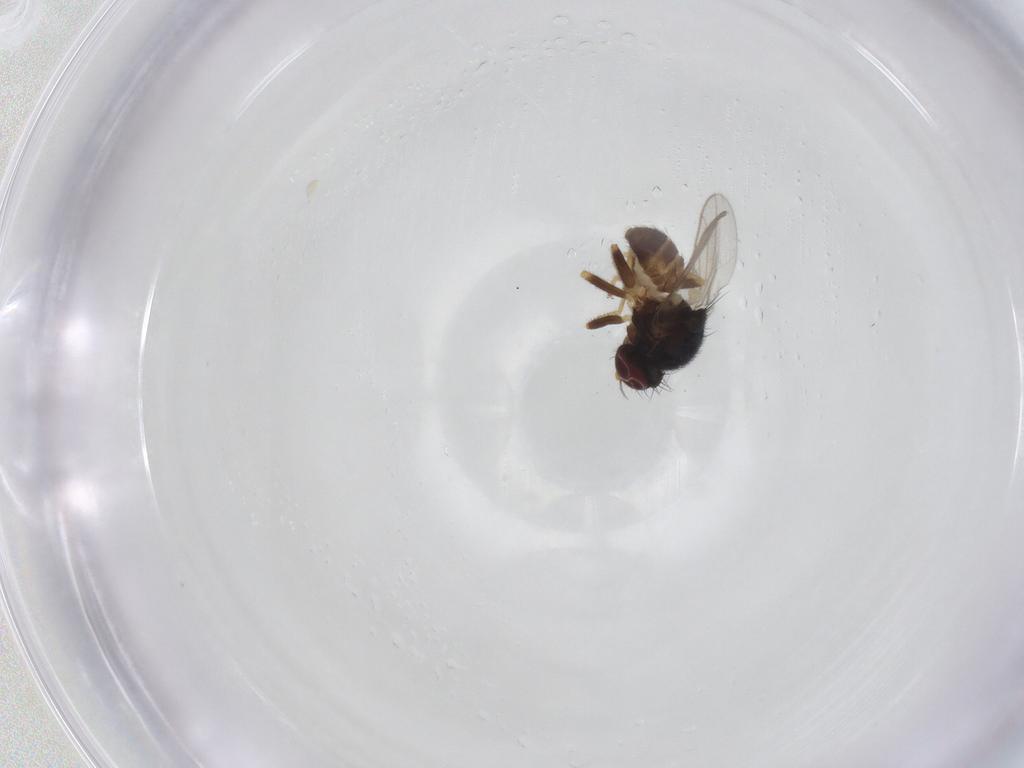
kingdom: Animalia
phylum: Arthropoda
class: Insecta
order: Diptera
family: Chloropidae
